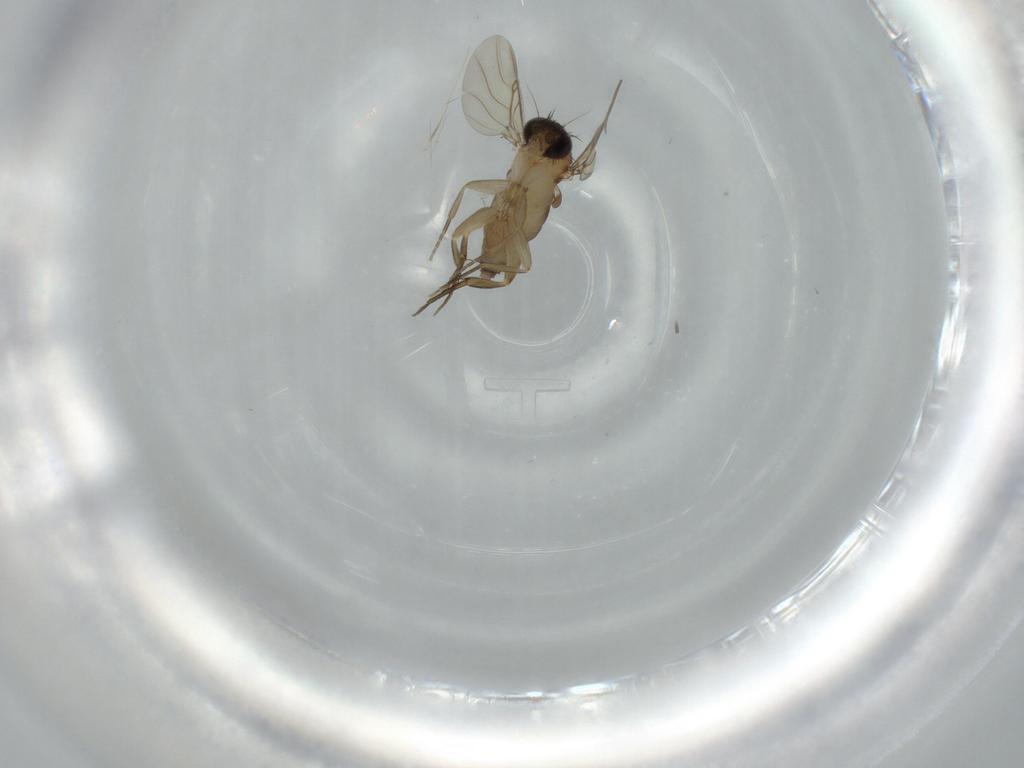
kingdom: Animalia
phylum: Arthropoda
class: Insecta
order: Diptera
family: Phoridae
